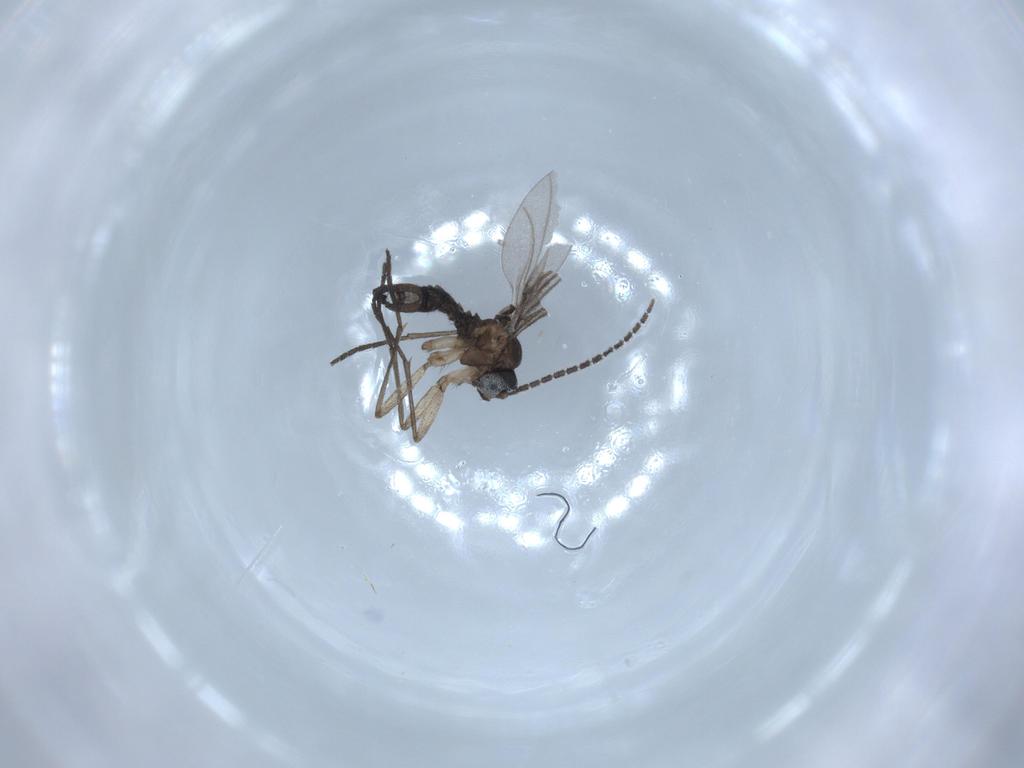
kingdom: Animalia
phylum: Arthropoda
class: Insecta
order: Diptera
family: Sciaridae
